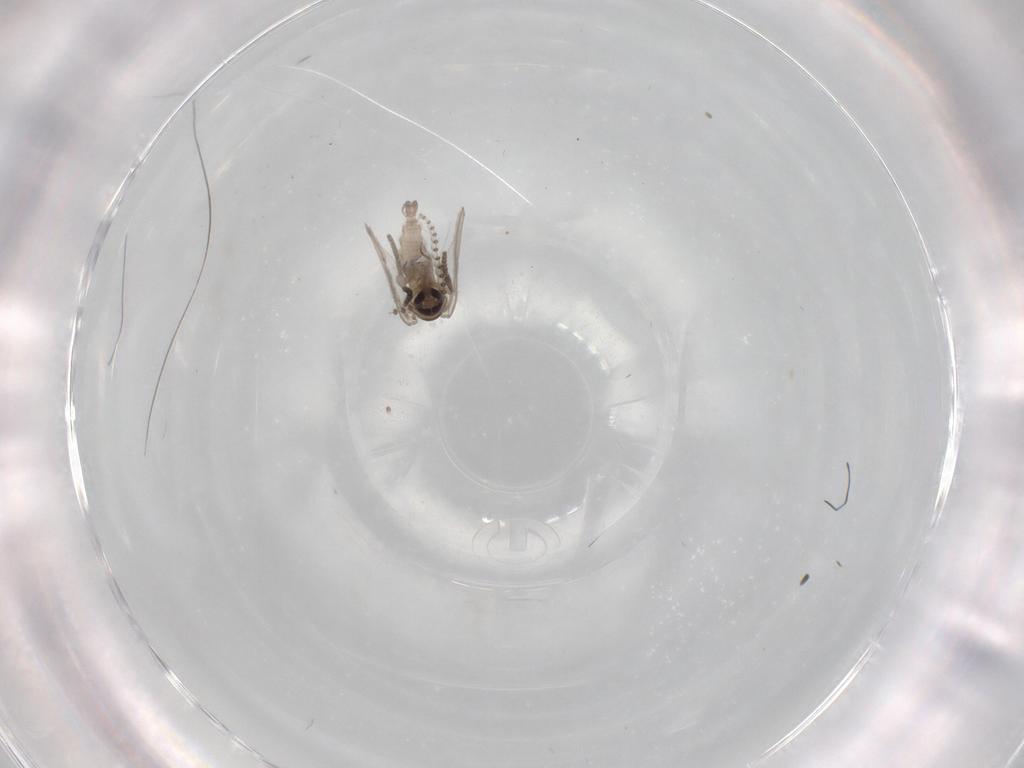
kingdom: Animalia
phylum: Arthropoda
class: Insecta
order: Diptera
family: Psychodidae
